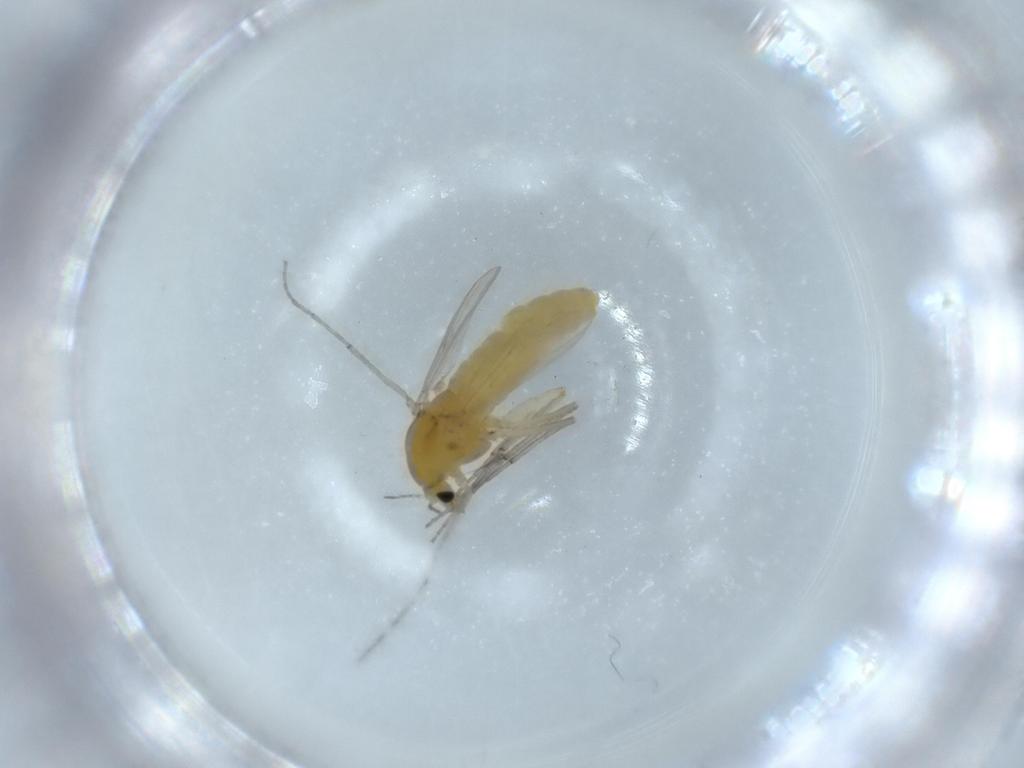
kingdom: Animalia
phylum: Arthropoda
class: Insecta
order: Diptera
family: Chironomidae
